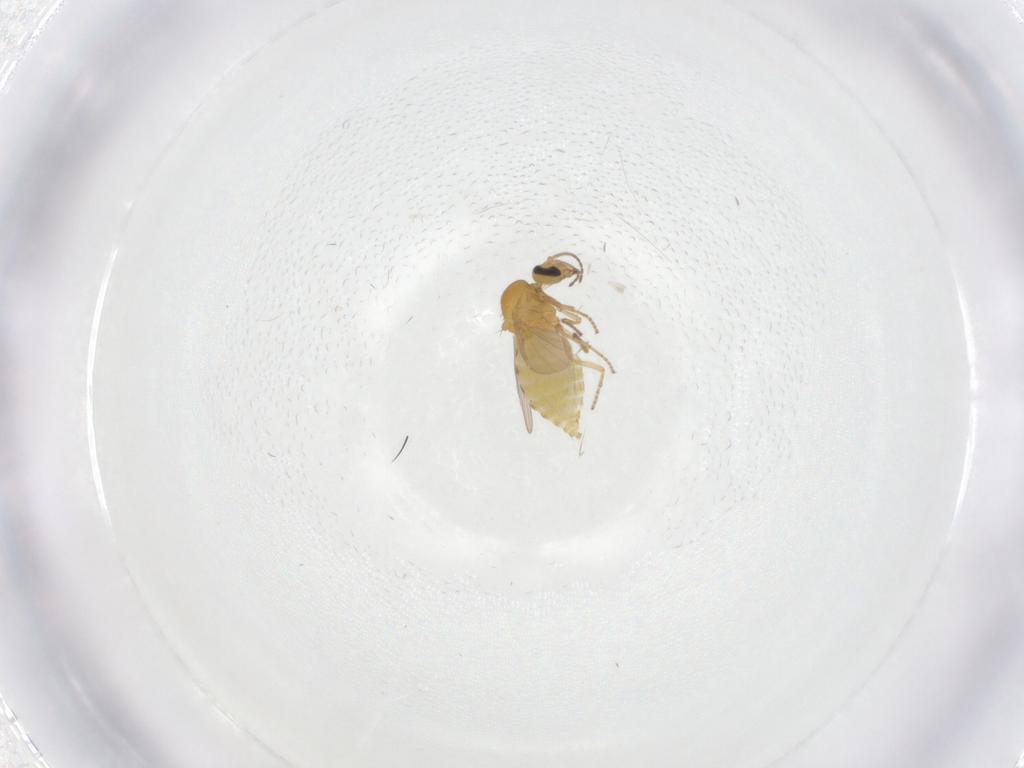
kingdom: Animalia
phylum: Arthropoda
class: Insecta
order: Diptera
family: Ceratopogonidae
